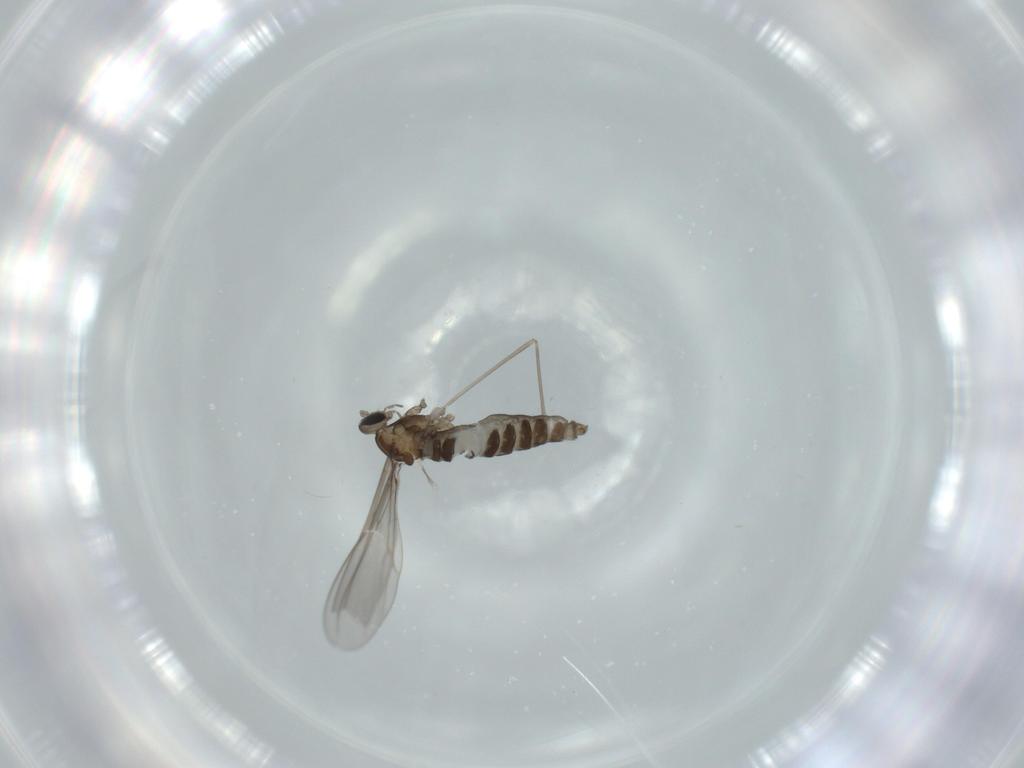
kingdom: Animalia
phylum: Arthropoda
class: Insecta
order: Diptera
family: Cecidomyiidae
